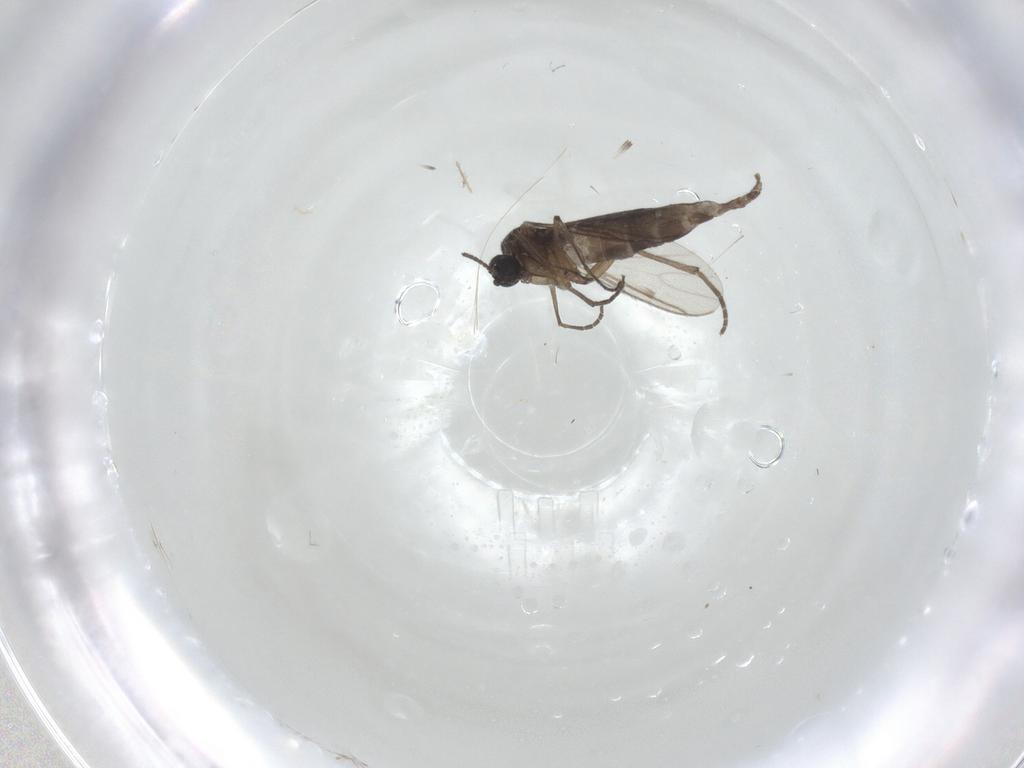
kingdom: Animalia
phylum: Arthropoda
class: Insecta
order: Diptera
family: Sciaridae
